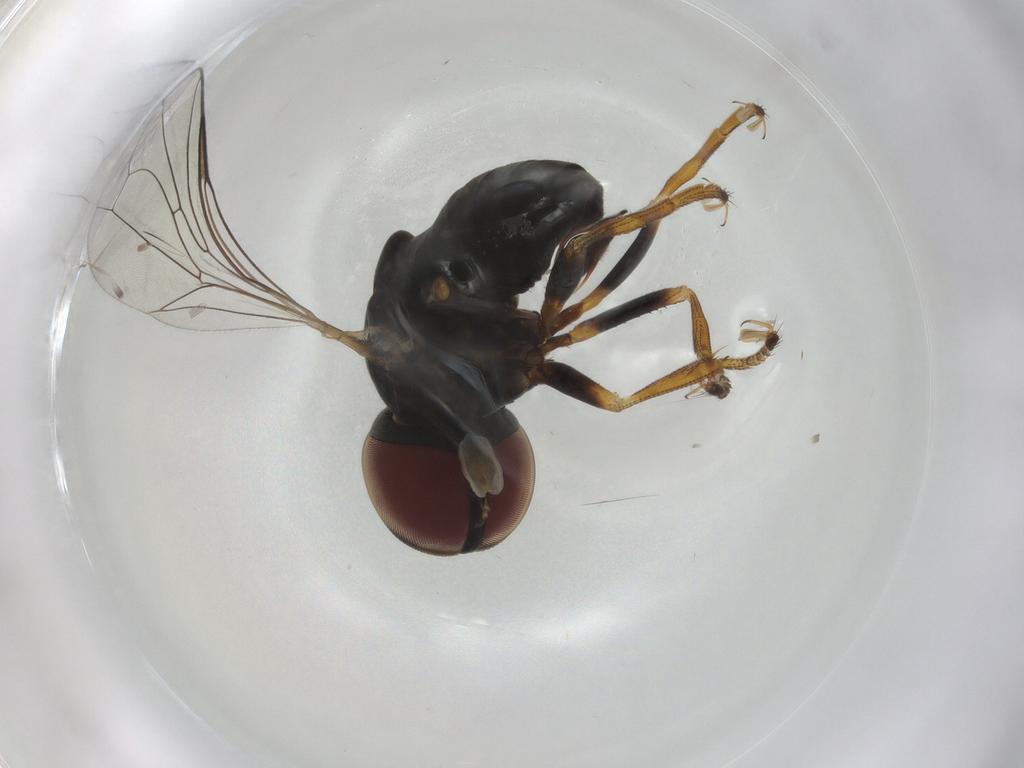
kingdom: Animalia
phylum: Arthropoda
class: Insecta
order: Diptera
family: Pipunculidae
